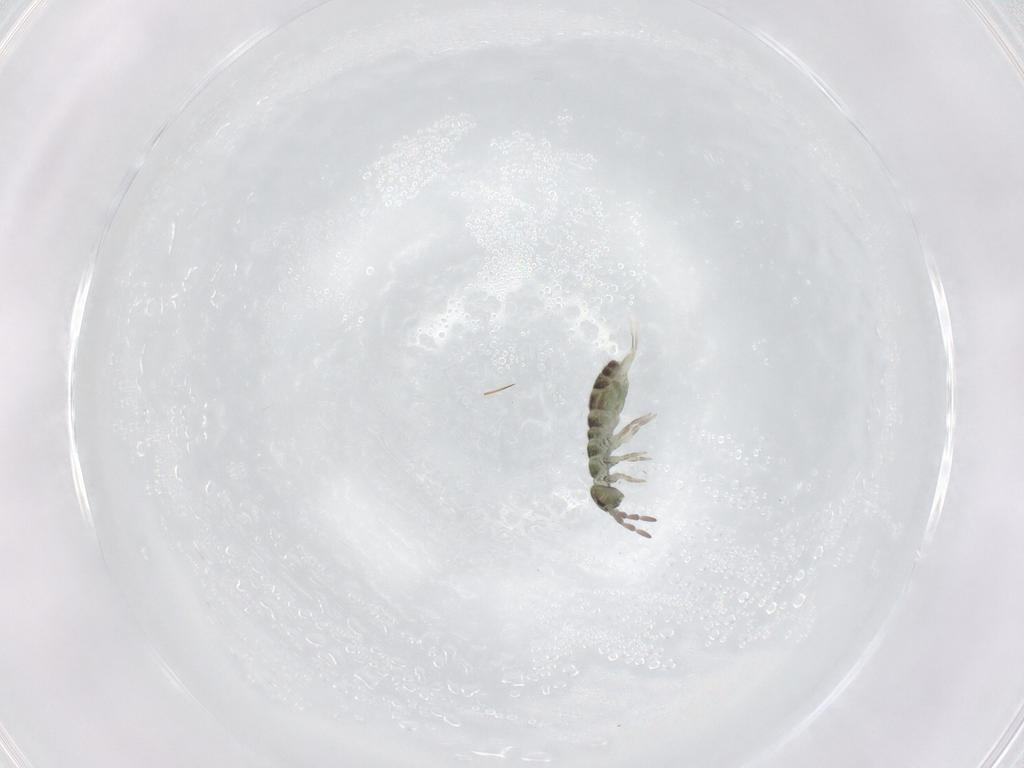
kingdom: Animalia
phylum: Arthropoda
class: Collembola
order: Entomobryomorpha
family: Isotomidae
